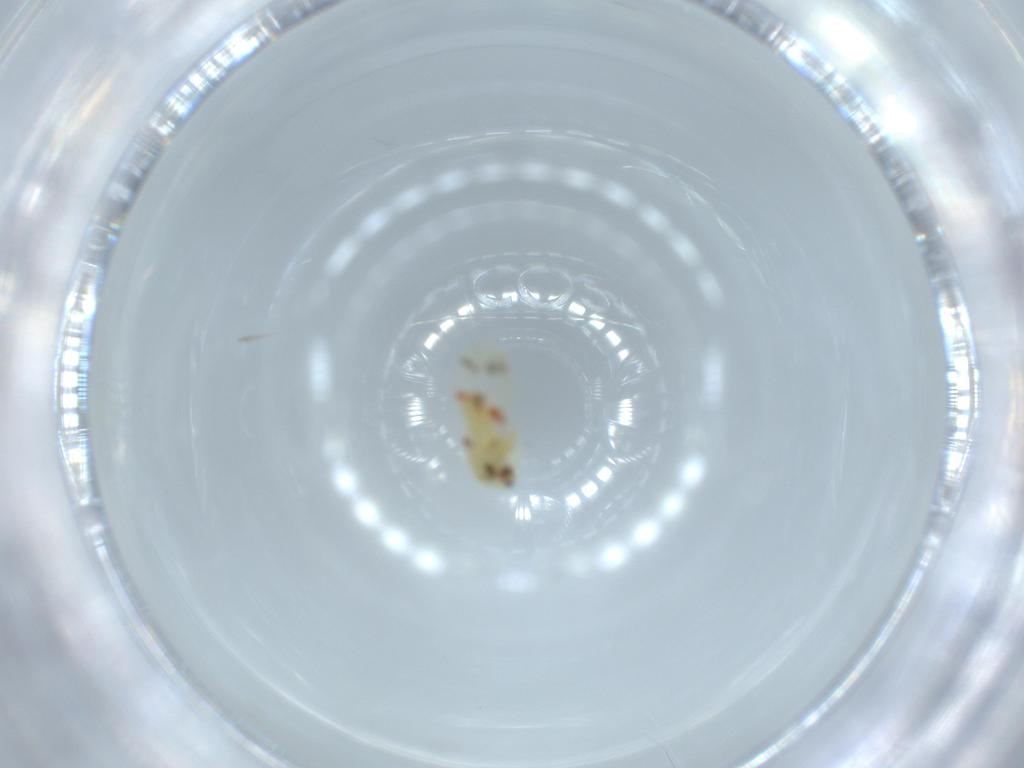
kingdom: Animalia
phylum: Arthropoda
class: Insecta
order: Hemiptera
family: Aleyrodidae
